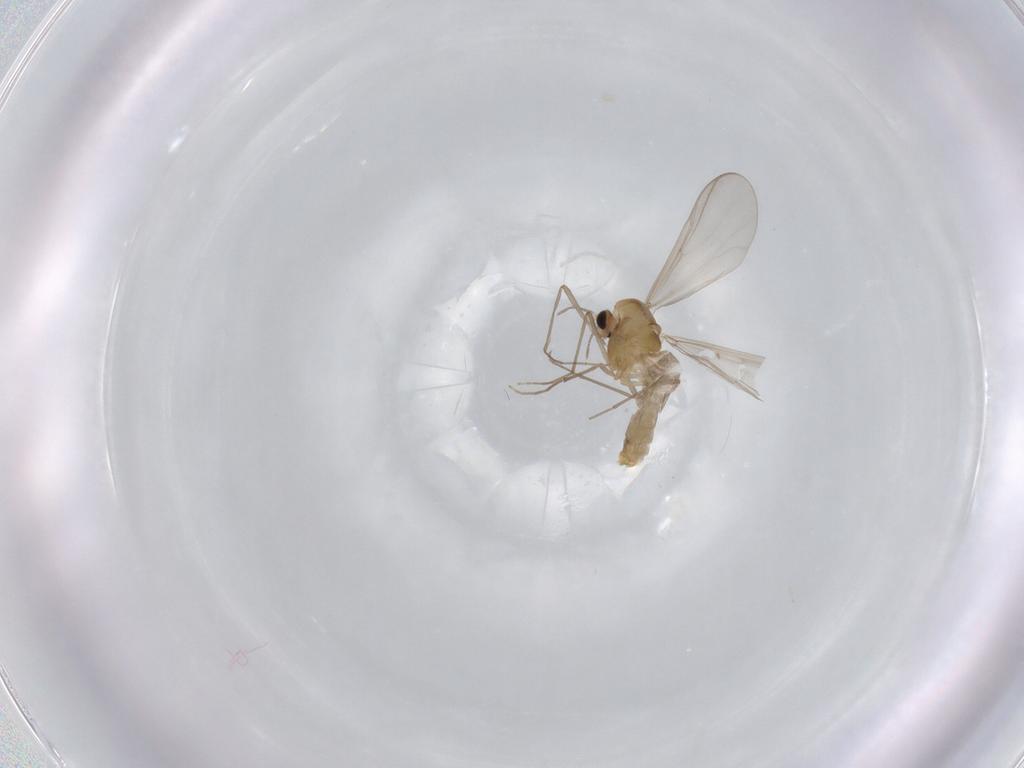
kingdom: Animalia
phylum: Arthropoda
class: Insecta
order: Diptera
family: Chironomidae
